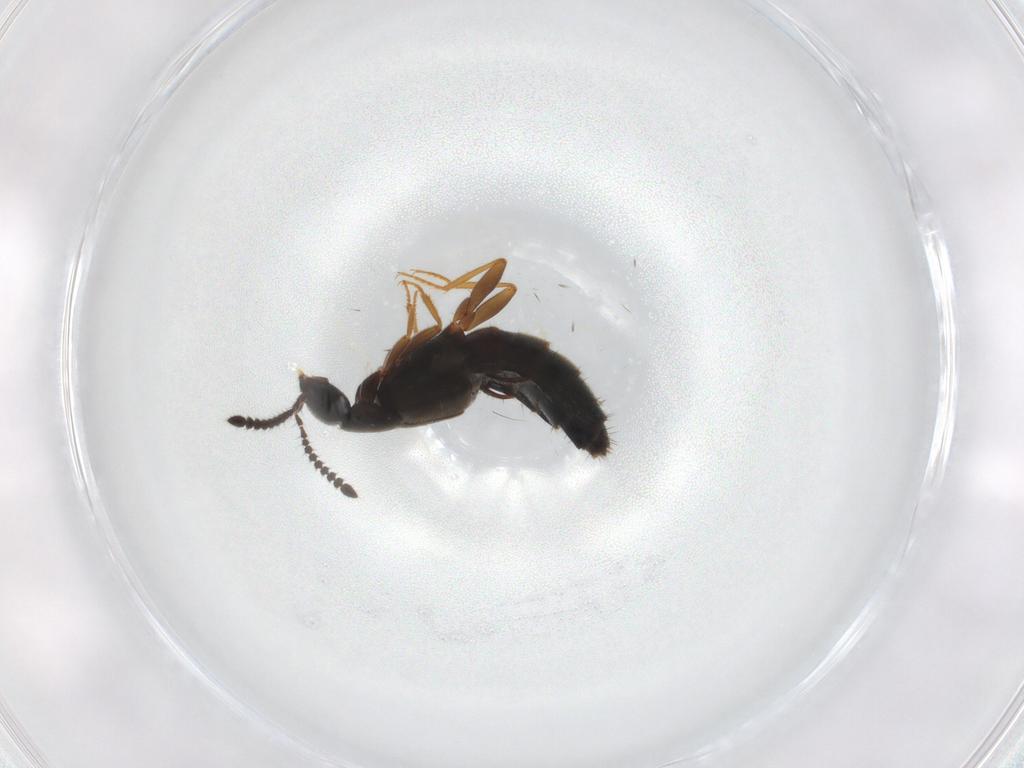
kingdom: Animalia
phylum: Arthropoda
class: Insecta
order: Coleoptera
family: Staphylinidae
